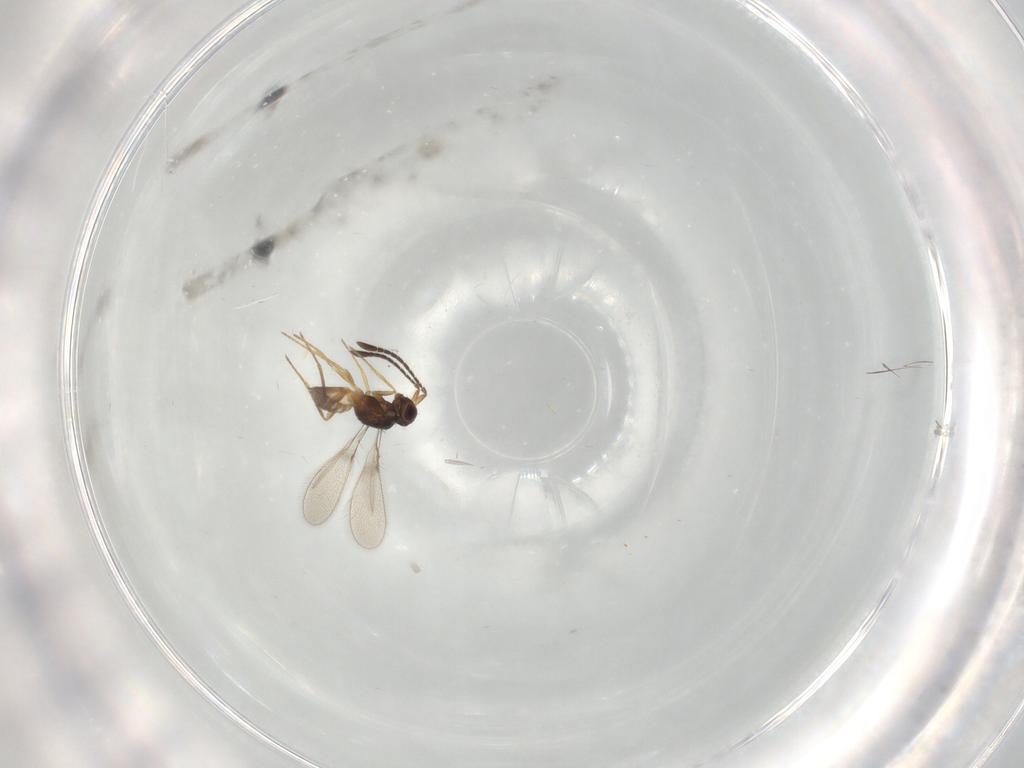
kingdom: Animalia
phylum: Arthropoda
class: Insecta
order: Hymenoptera
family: Mymaridae
